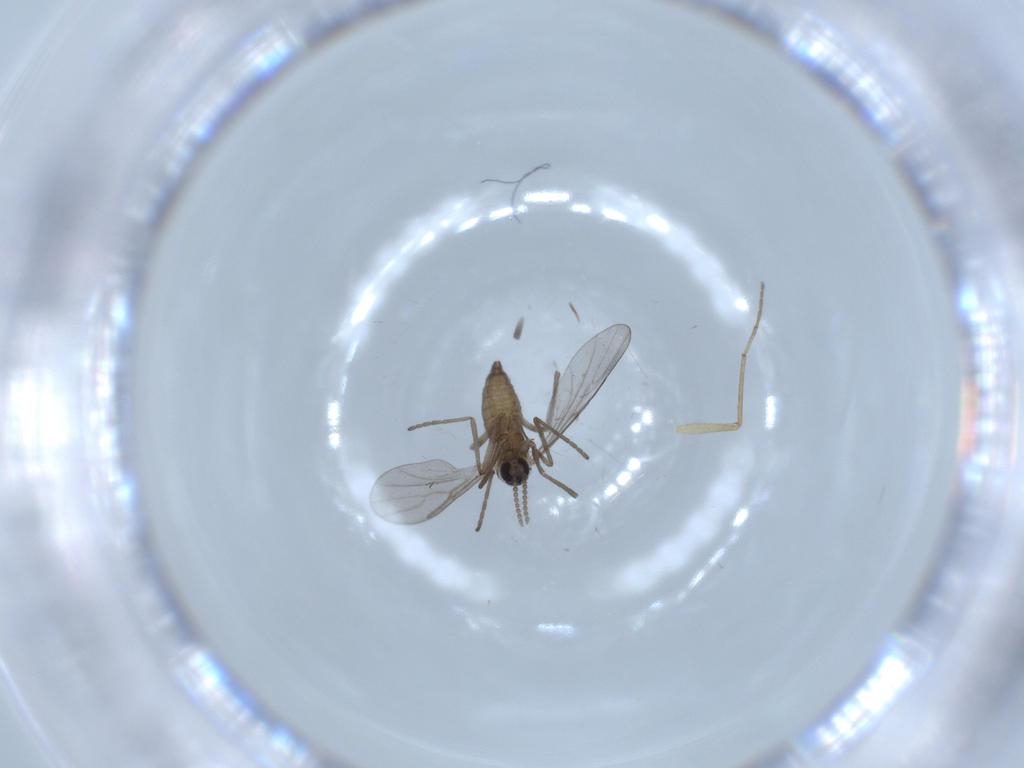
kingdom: Animalia
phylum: Arthropoda
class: Insecta
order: Diptera
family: Cecidomyiidae
